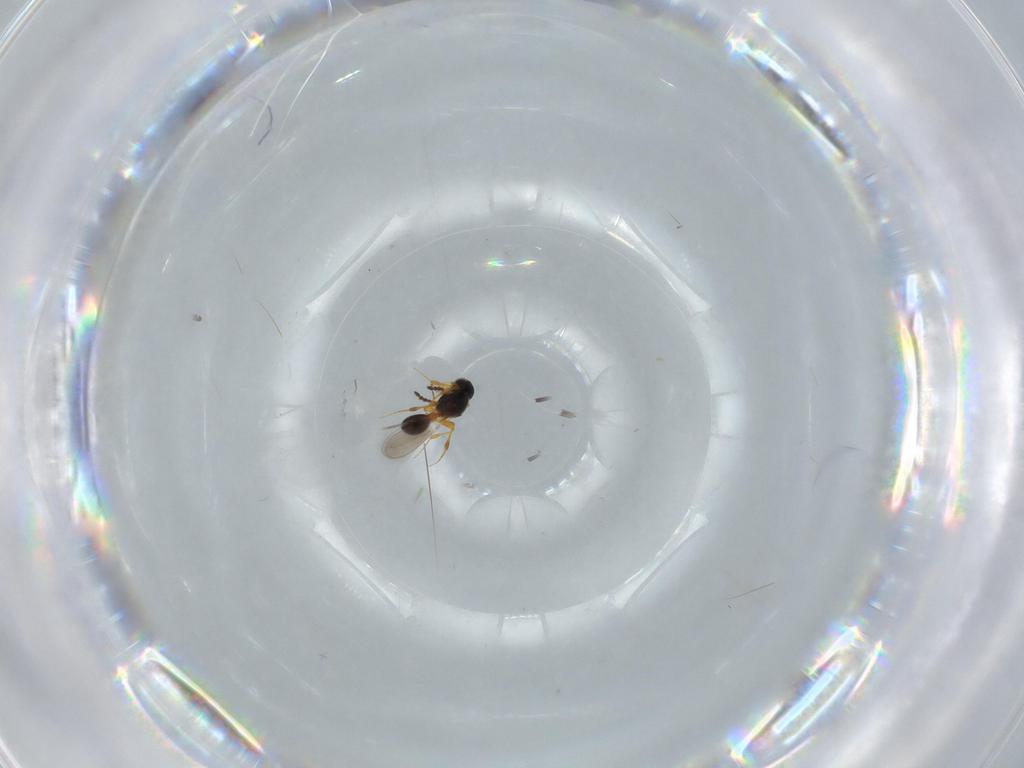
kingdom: Animalia
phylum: Arthropoda
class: Insecta
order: Hymenoptera
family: Platygastridae
